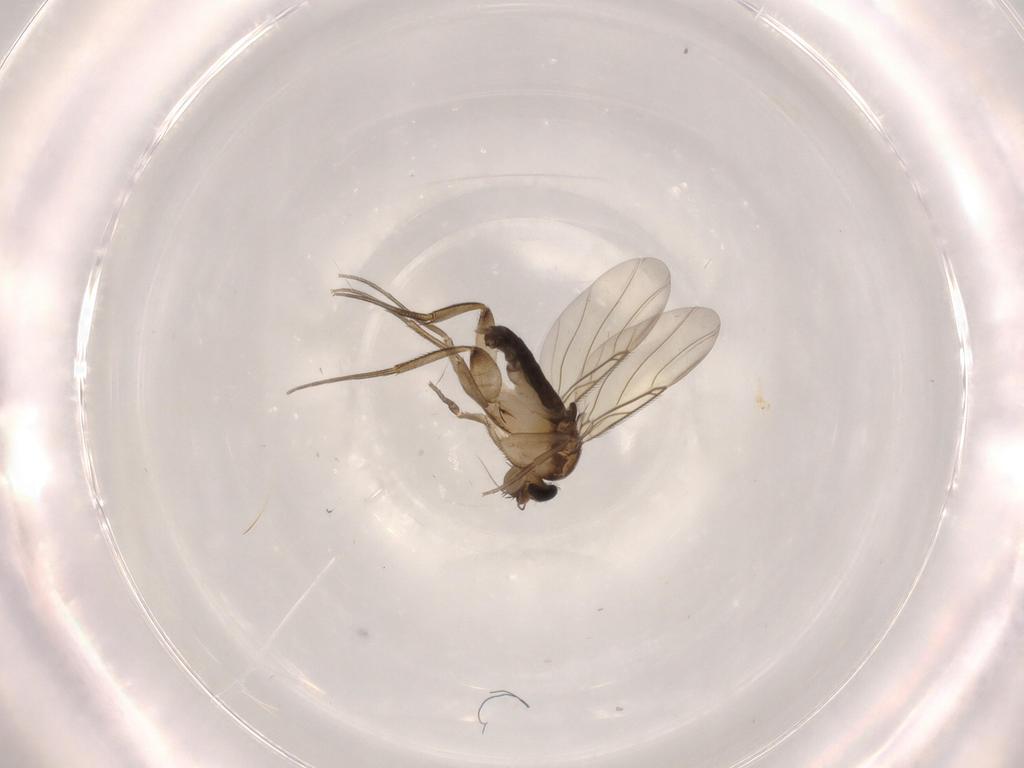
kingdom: Animalia
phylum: Arthropoda
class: Insecta
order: Diptera
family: Phoridae
